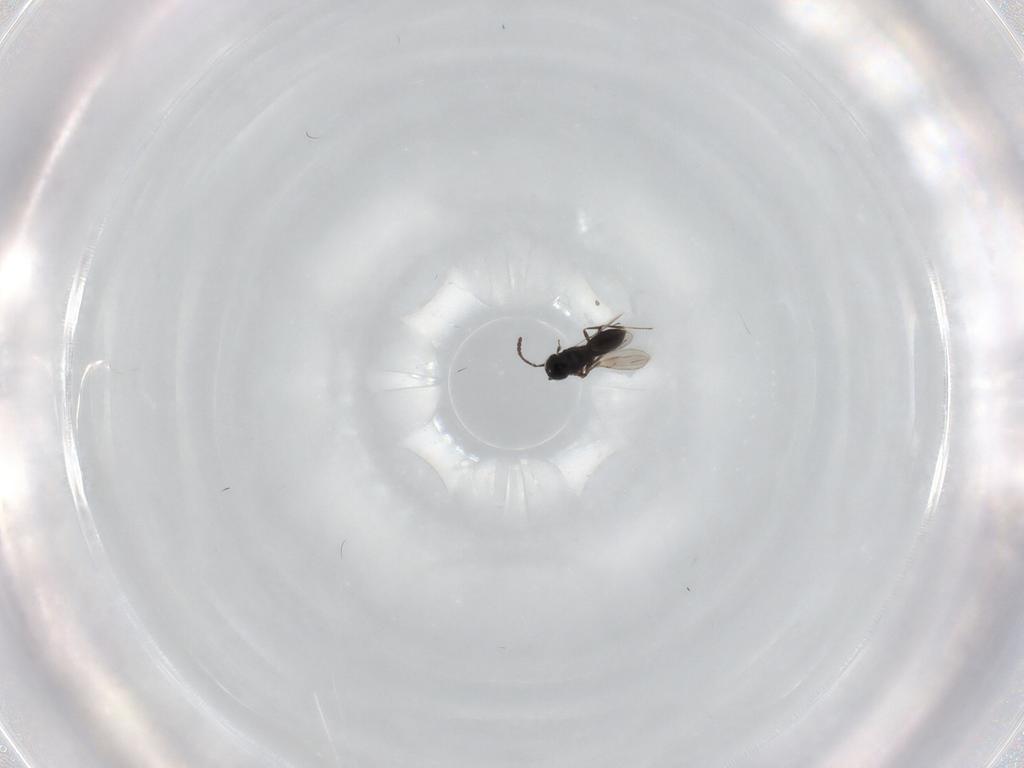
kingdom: Animalia
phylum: Arthropoda
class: Insecta
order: Hymenoptera
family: Scelionidae
